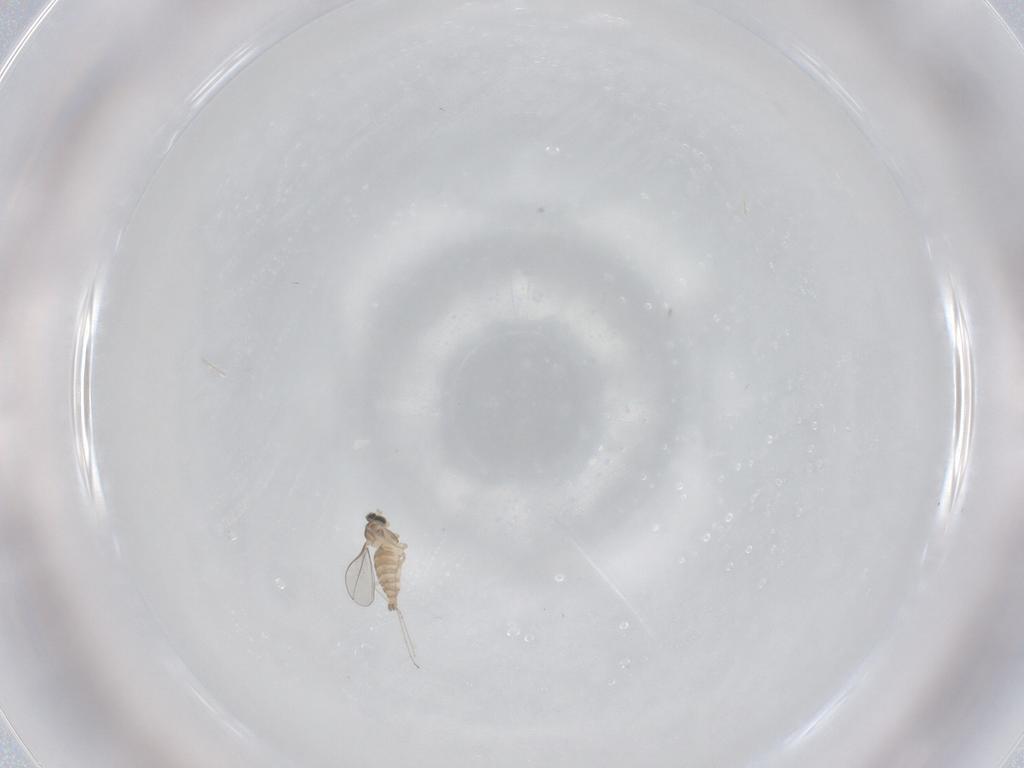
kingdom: Animalia
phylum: Arthropoda
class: Insecta
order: Diptera
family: Cecidomyiidae
